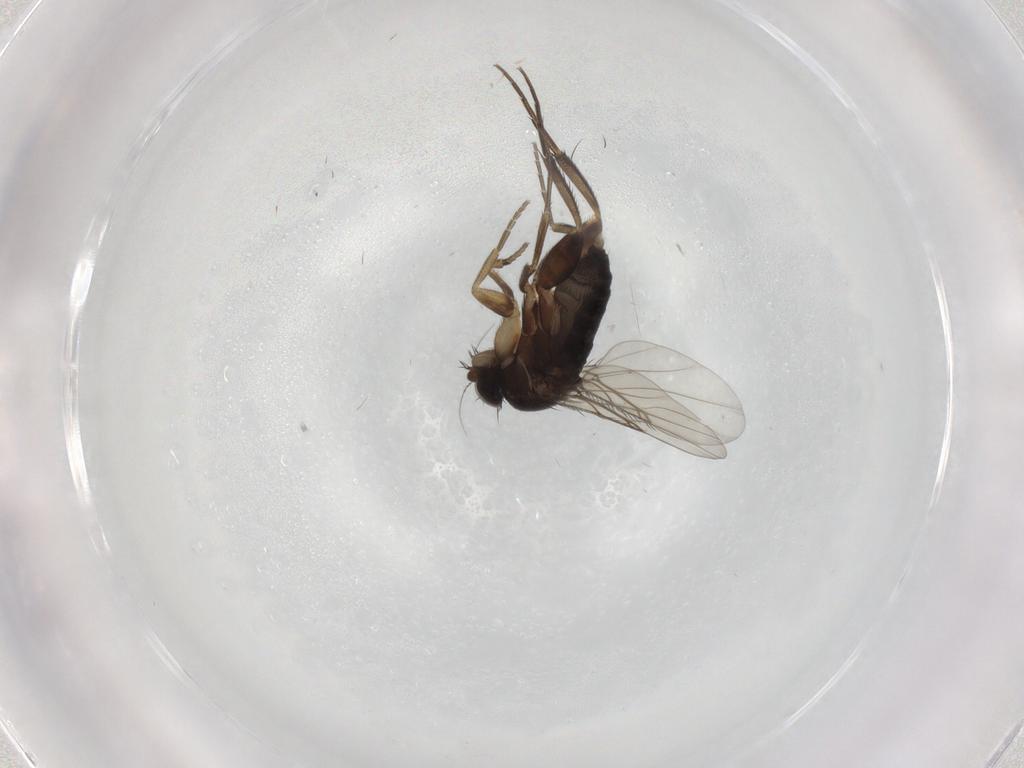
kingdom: Animalia
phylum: Arthropoda
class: Insecta
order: Diptera
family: Phoridae
